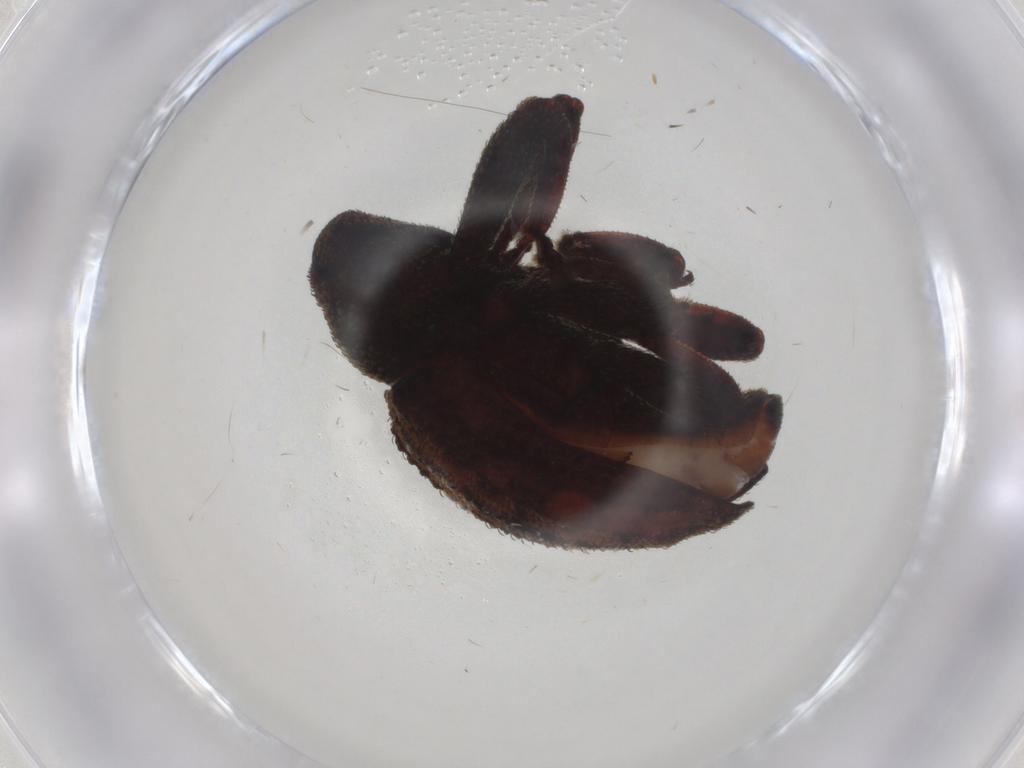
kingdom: Animalia
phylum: Arthropoda
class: Insecta
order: Coleoptera
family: Curculionidae
